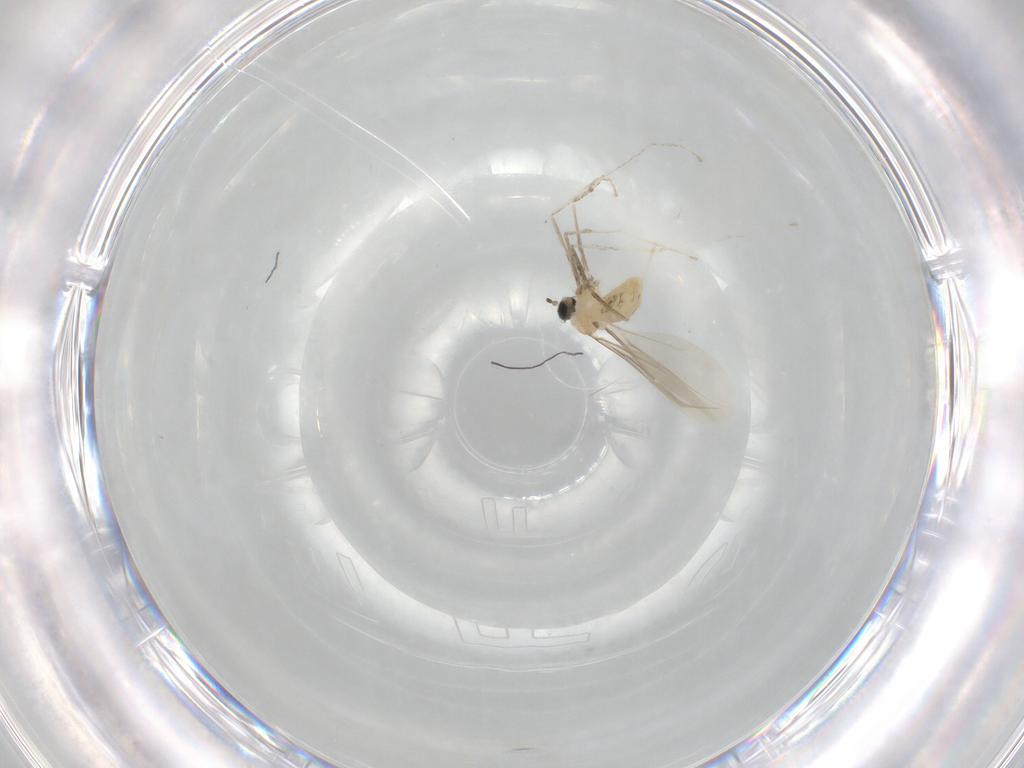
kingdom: Animalia
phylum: Arthropoda
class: Insecta
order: Diptera
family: Cecidomyiidae
